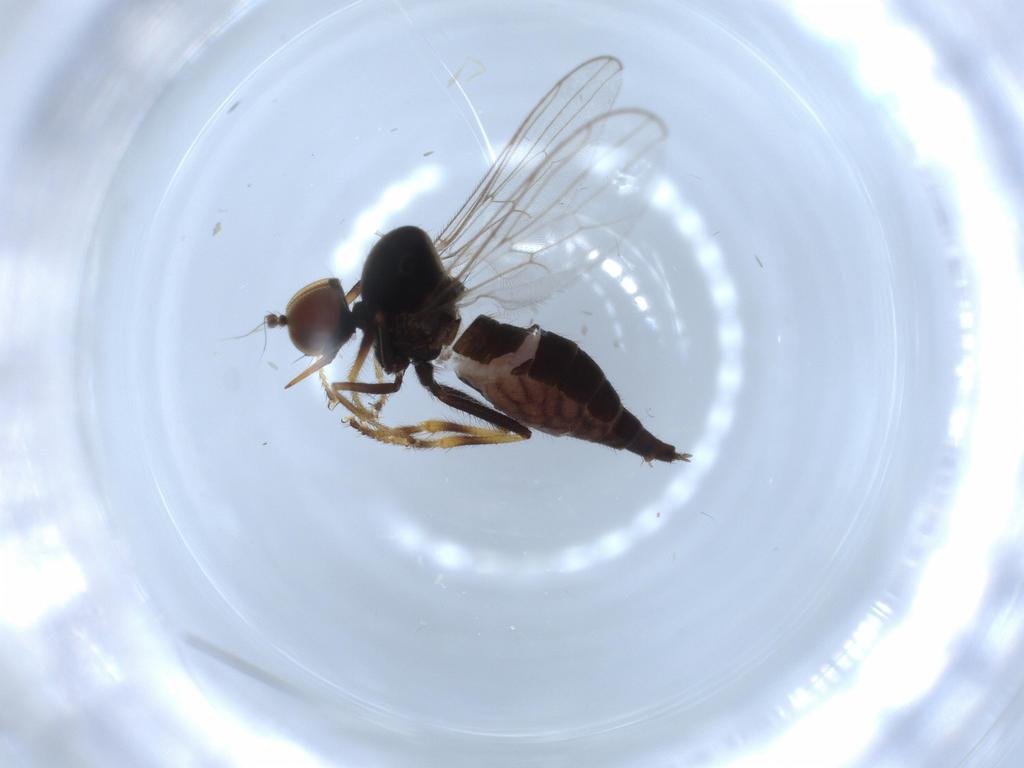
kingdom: Animalia
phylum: Arthropoda
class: Insecta
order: Diptera
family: Hybotidae
